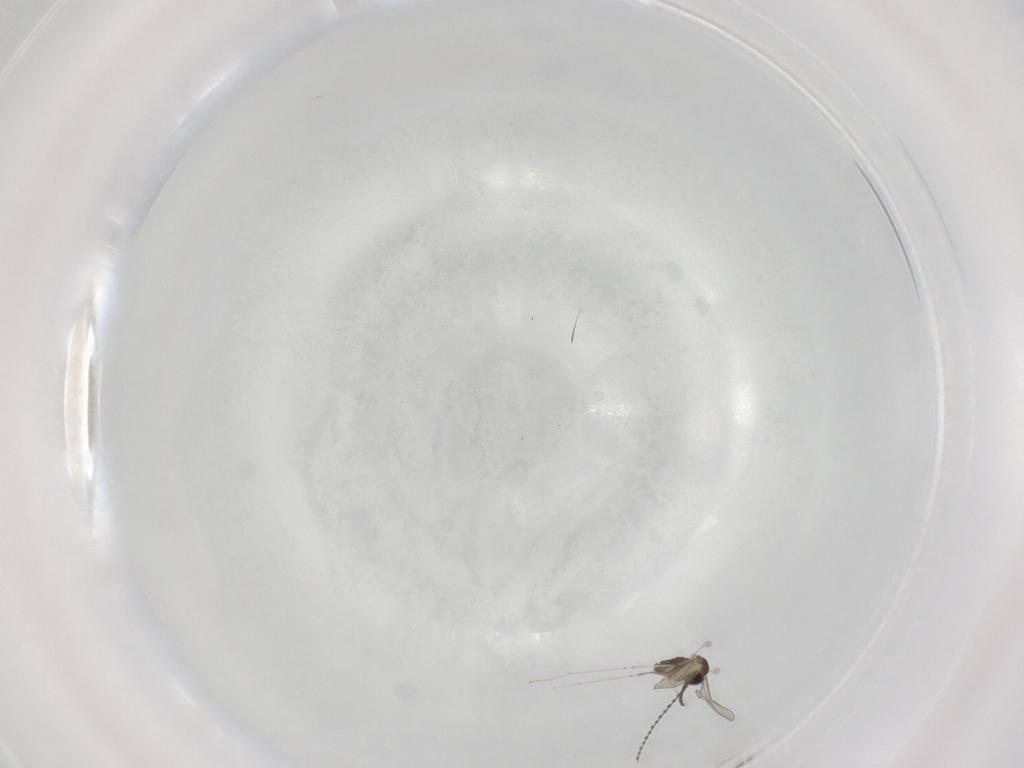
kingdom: Animalia
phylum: Arthropoda
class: Insecta
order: Diptera
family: Cecidomyiidae
